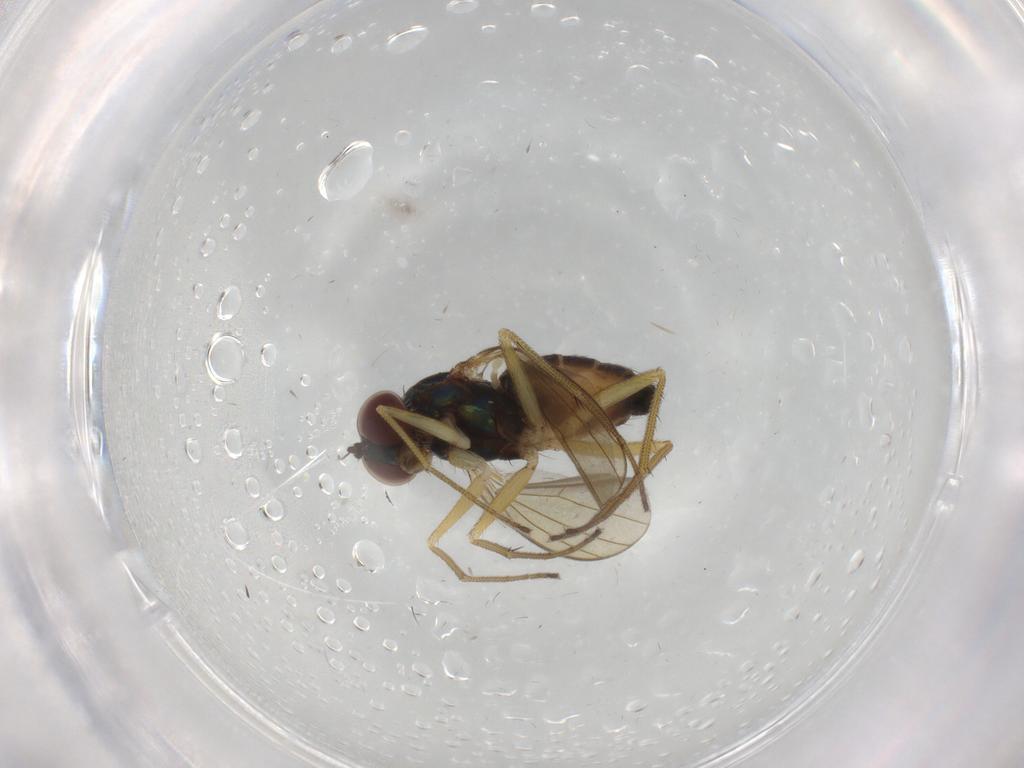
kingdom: Animalia
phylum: Arthropoda
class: Insecta
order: Diptera
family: Dolichopodidae
